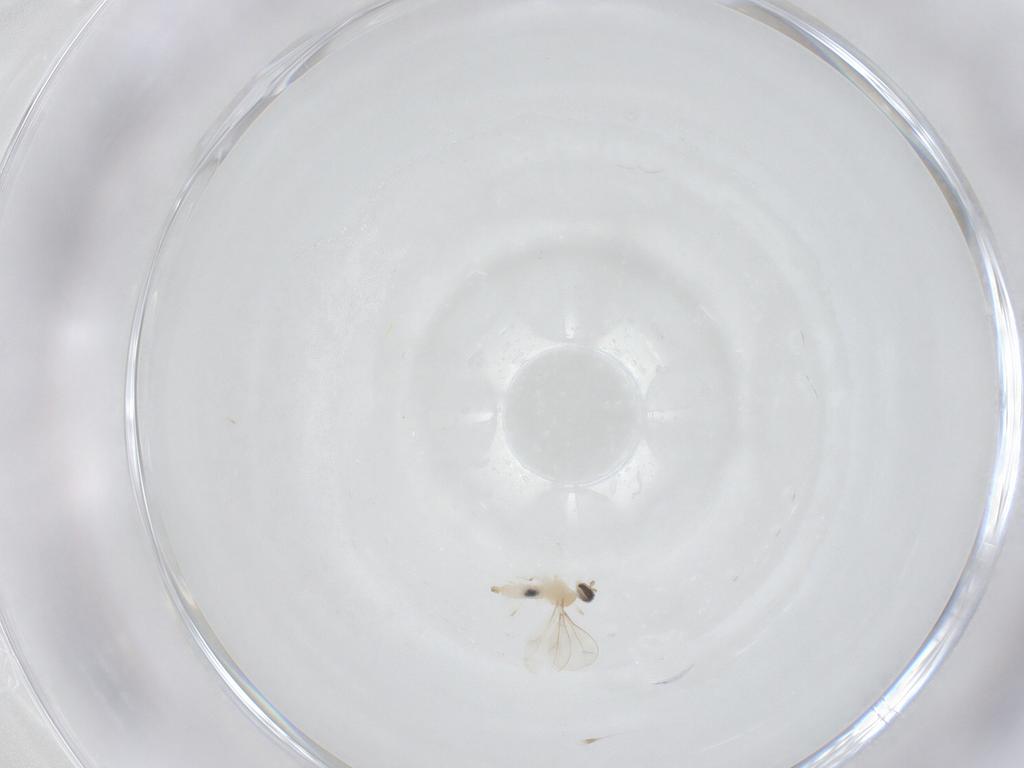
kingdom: Animalia
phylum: Arthropoda
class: Insecta
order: Diptera
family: Cecidomyiidae
